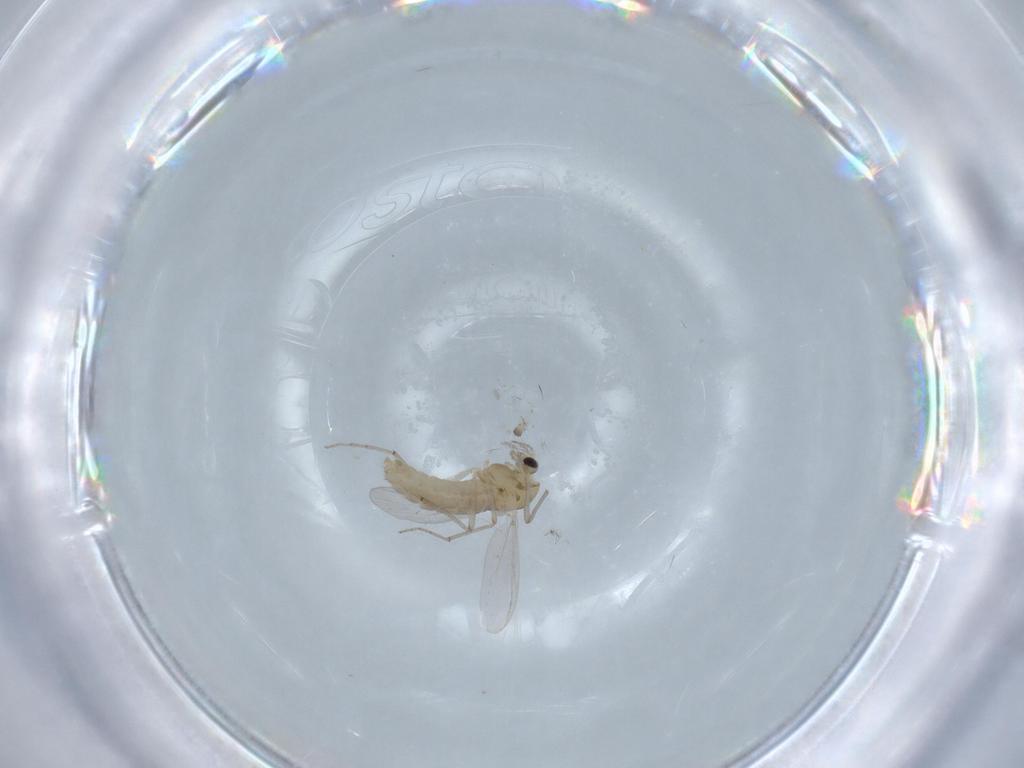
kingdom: Animalia
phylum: Arthropoda
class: Insecta
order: Diptera
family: Chironomidae
